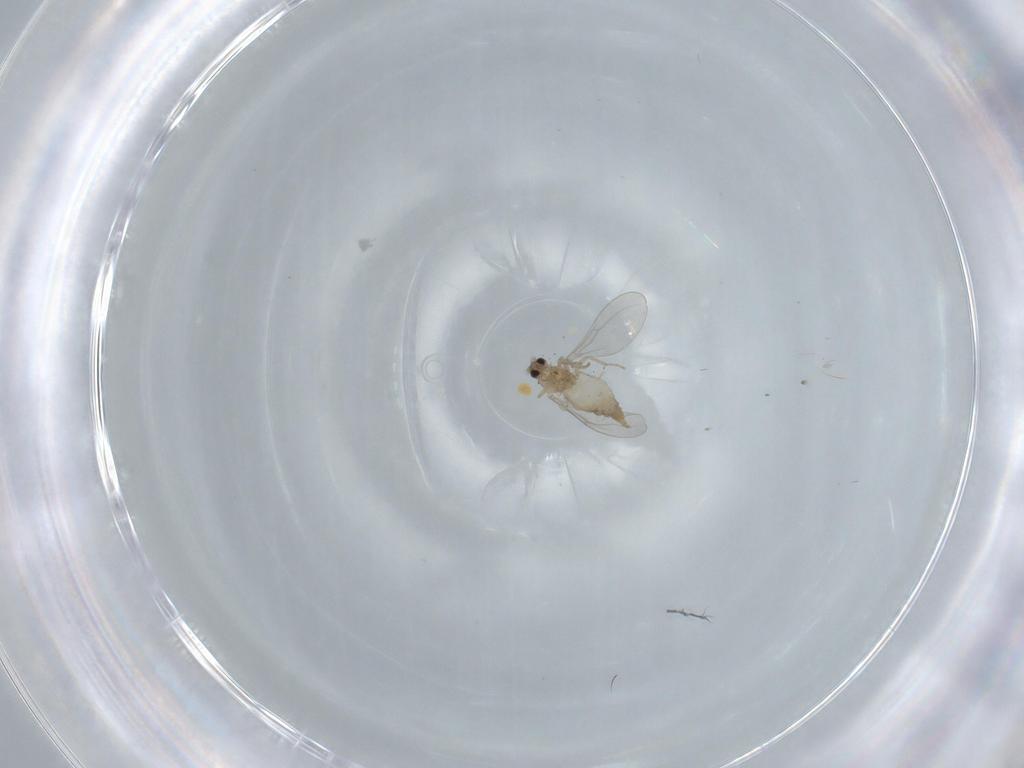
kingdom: Animalia
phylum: Arthropoda
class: Insecta
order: Diptera
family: Cecidomyiidae
